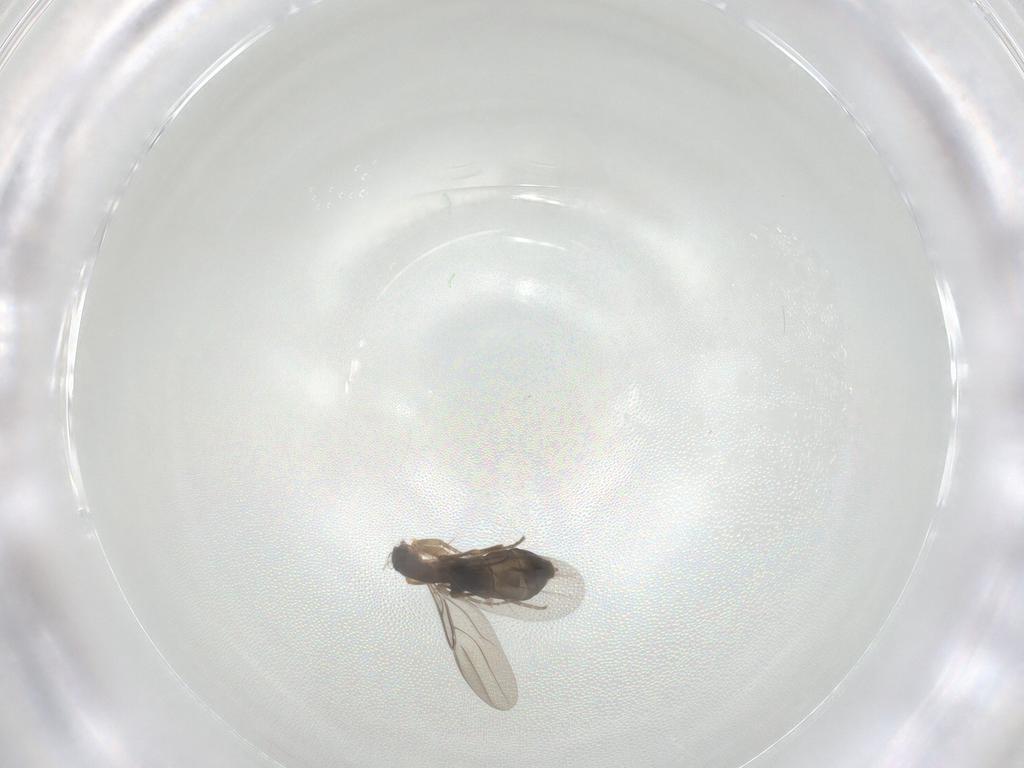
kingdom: Animalia
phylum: Arthropoda
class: Insecta
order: Diptera
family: Phoridae
